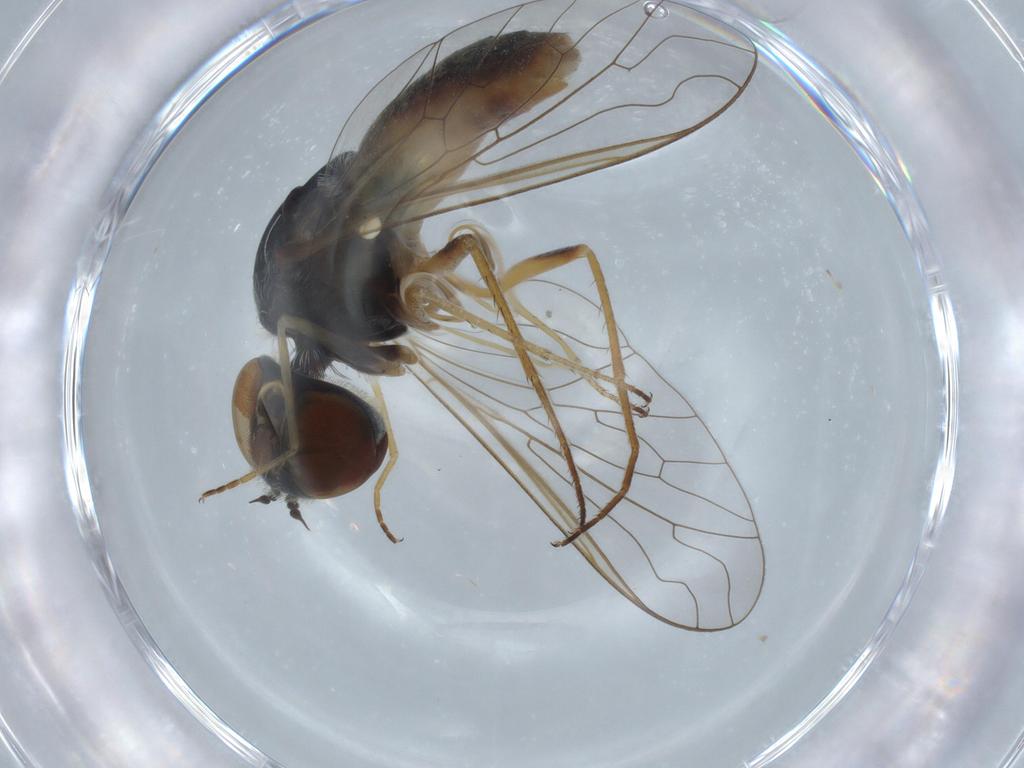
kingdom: Animalia
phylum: Arthropoda
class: Insecta
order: Diptera
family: Bombyliidae
